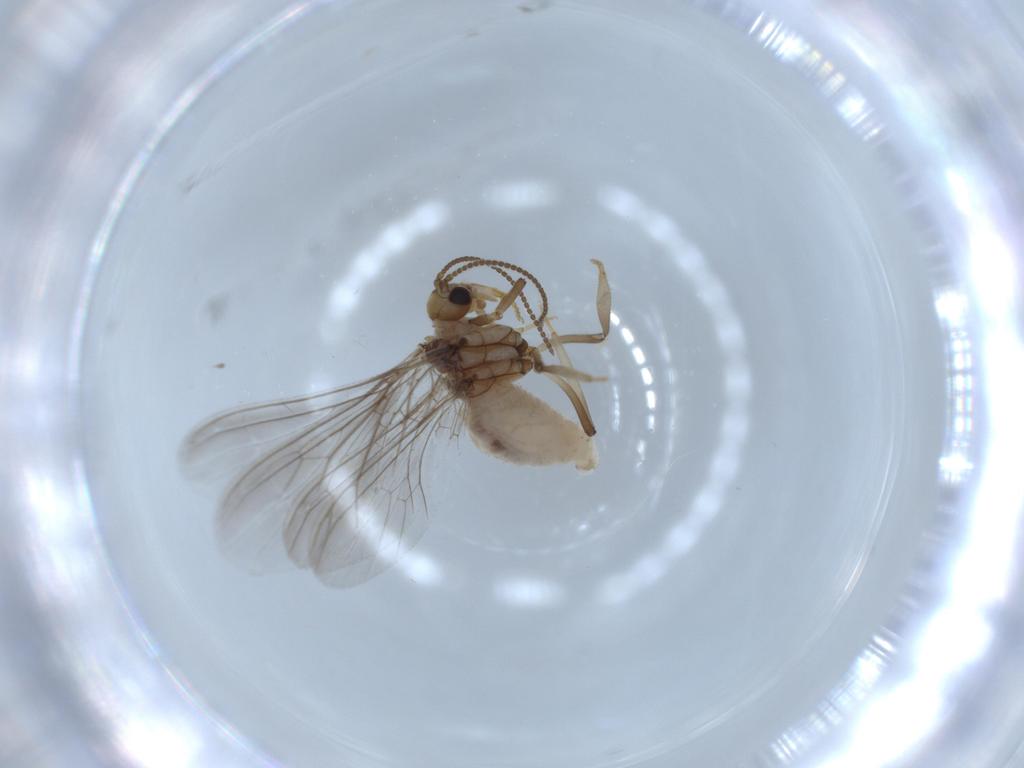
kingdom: Animalia
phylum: Arthropoda
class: Insecta
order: Neuroptera
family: Coniopterygidae
